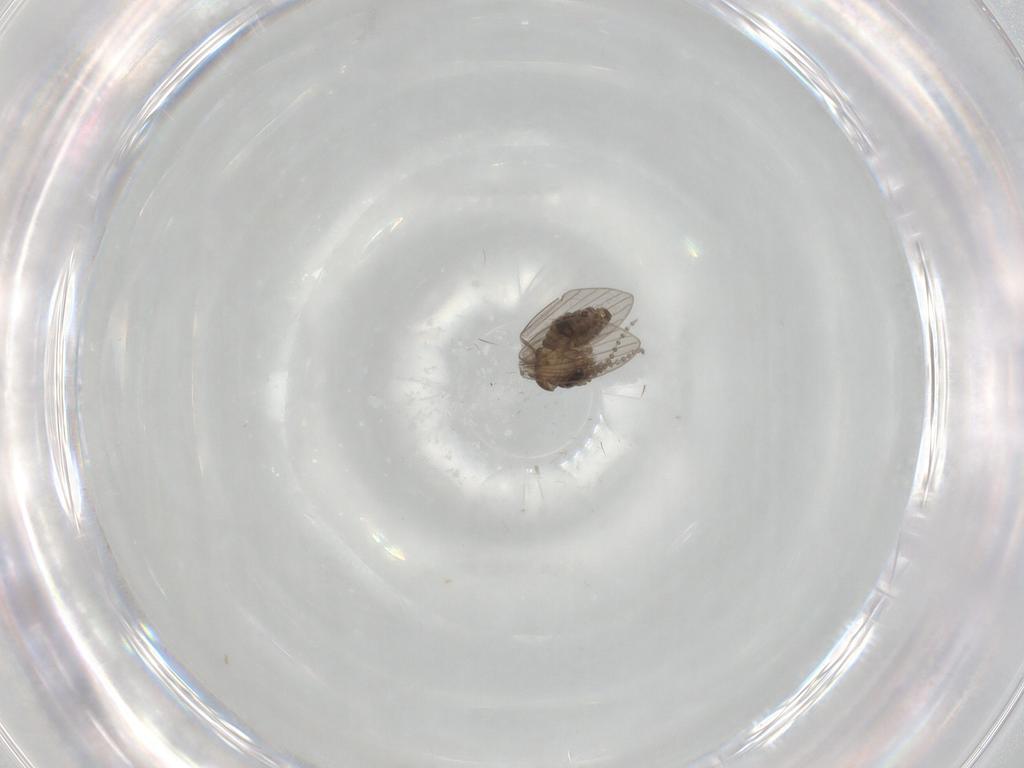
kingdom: Animalia
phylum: Arthropoda
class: Insecta
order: Diptera
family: Psychodidae
